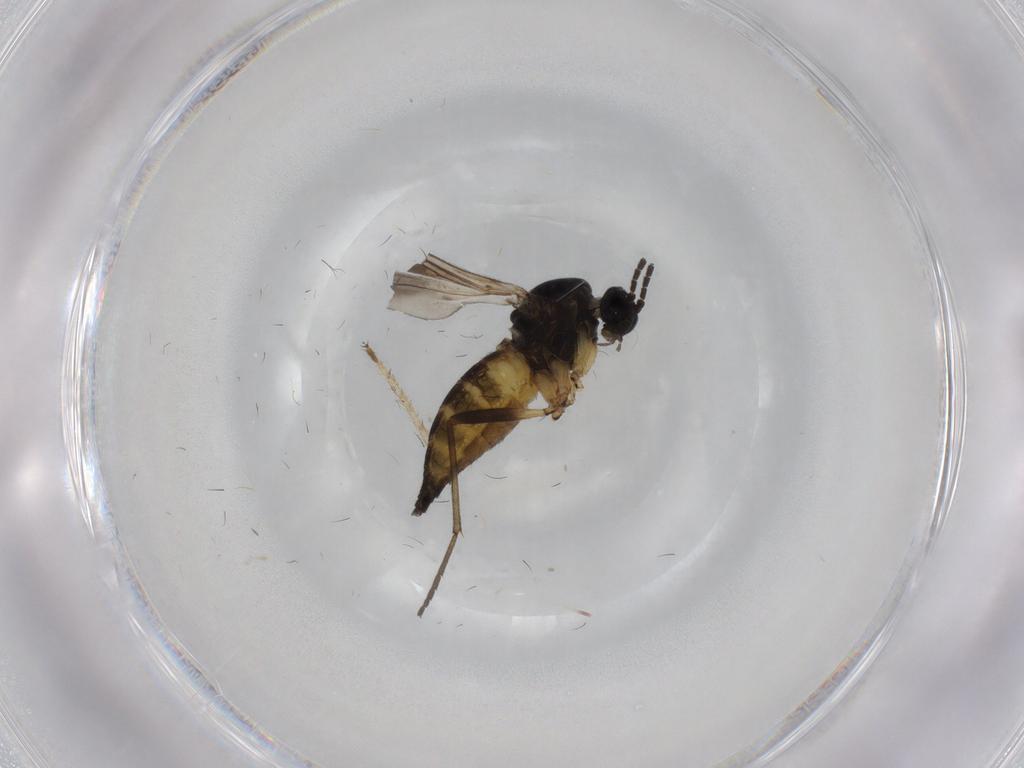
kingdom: Animalia
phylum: Arthropoda
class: Insecta
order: Diptera
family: Sciaridae
